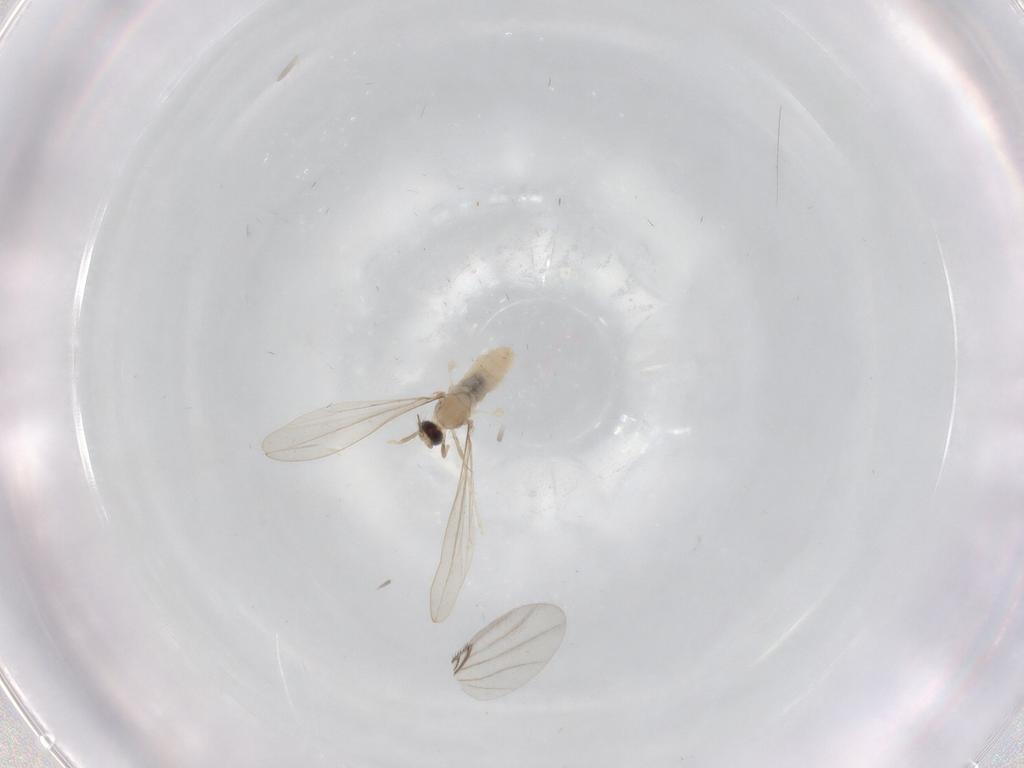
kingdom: Animalia
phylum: Arthropoda
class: Insecta
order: Diptera
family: Cecidomyiidae
